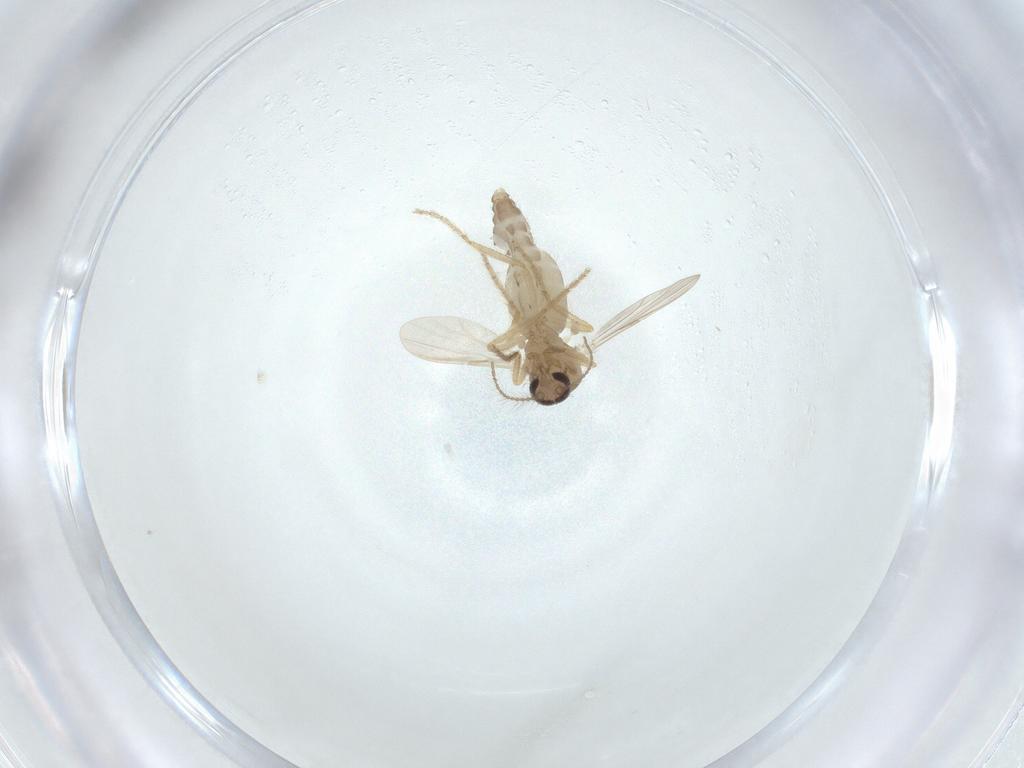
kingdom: Animalia
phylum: Arthropoda
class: Insecta
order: Diptera
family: Ceratopogonidae
